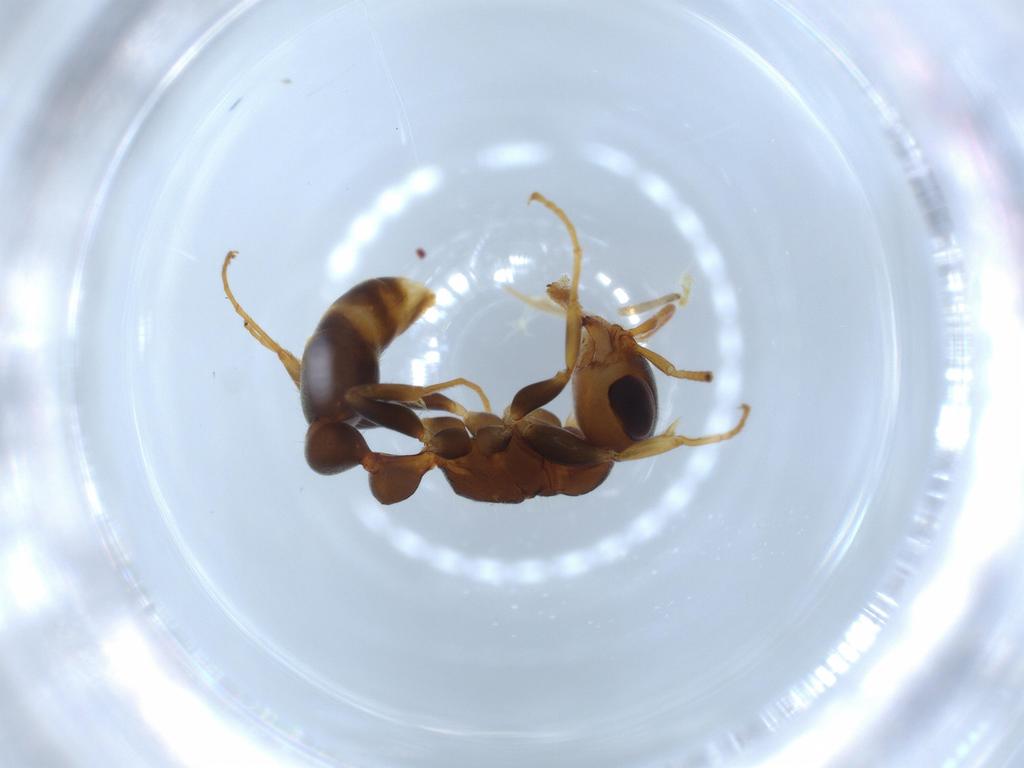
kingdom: Animalia
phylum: Arthropoda
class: Insecta
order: Hymenoptera
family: Formicidae
